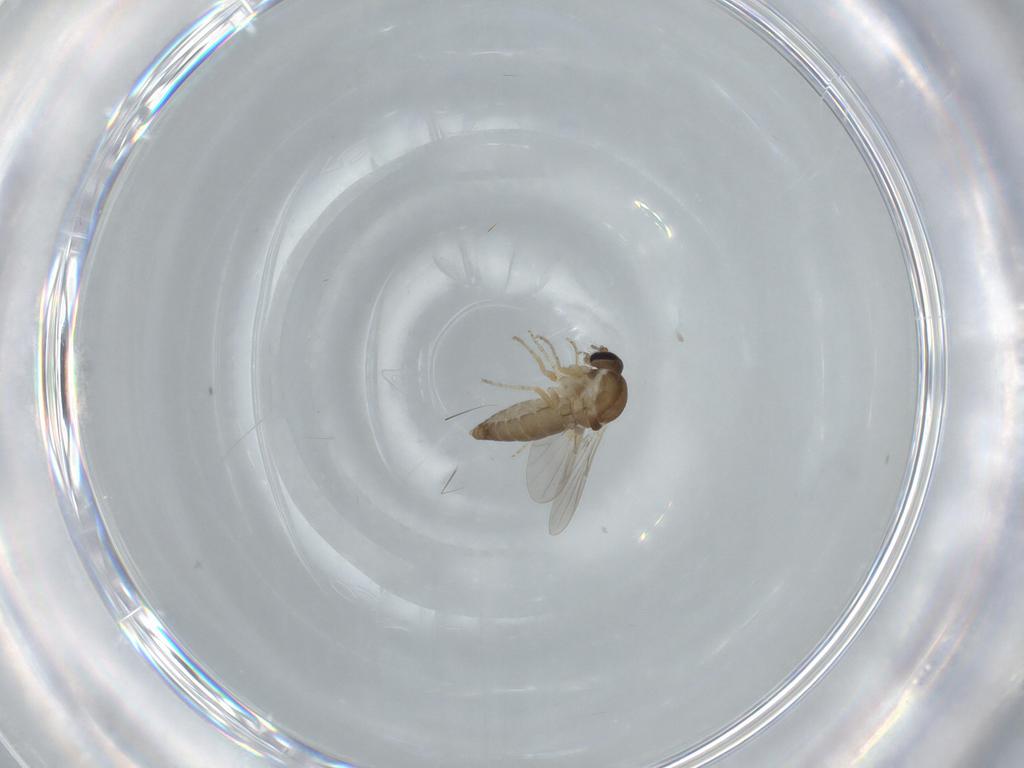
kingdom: Animalia
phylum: Arthropoda
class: Insecta
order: Diptera
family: Ceratopogonidae
